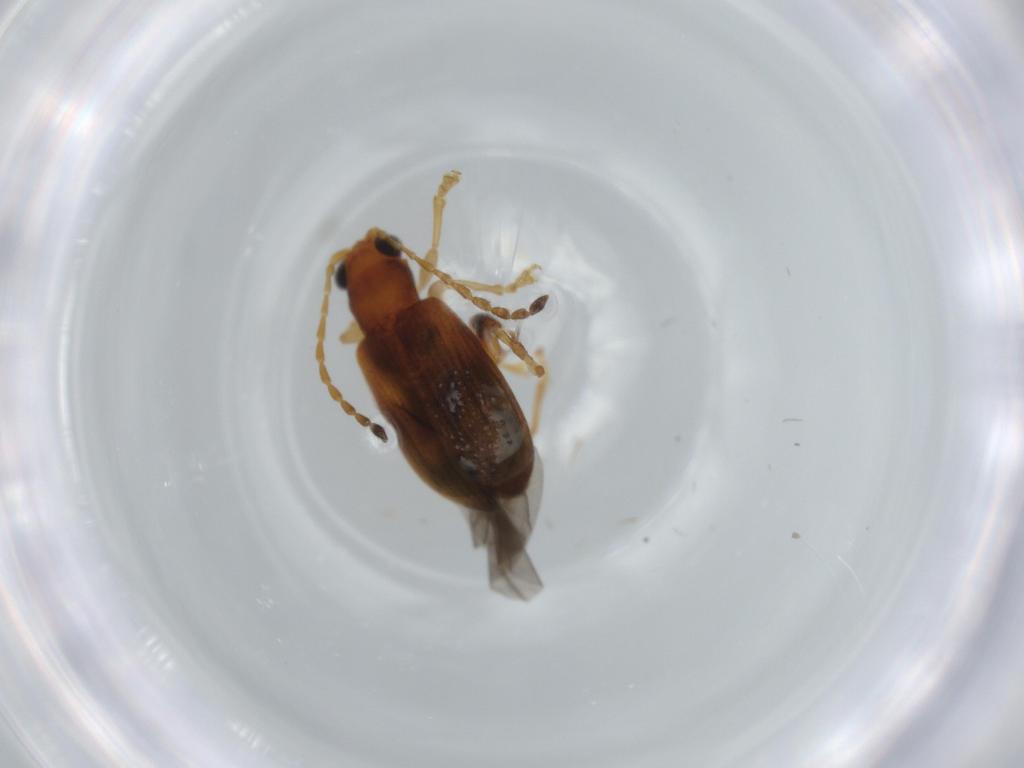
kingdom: Animalia
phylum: Arthropoda
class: Insecta
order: Coleoptera
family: Chrysomelidae
